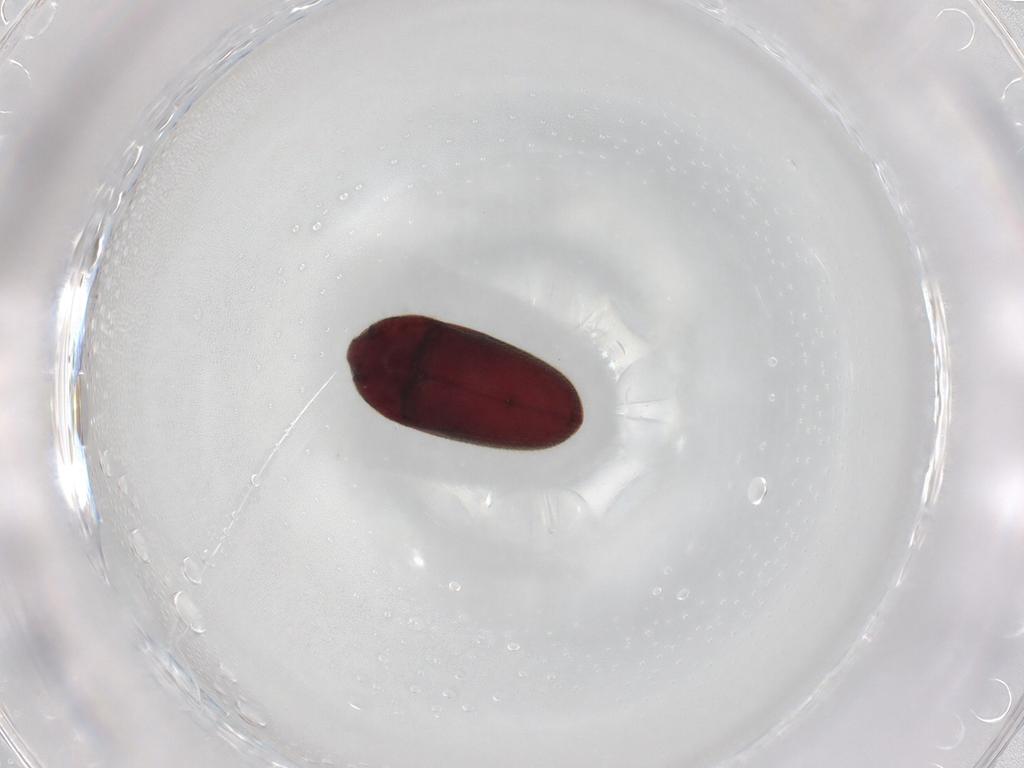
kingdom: Animalia
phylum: Arthropoda
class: Insecta
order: Coleoptera
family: Throscidae
